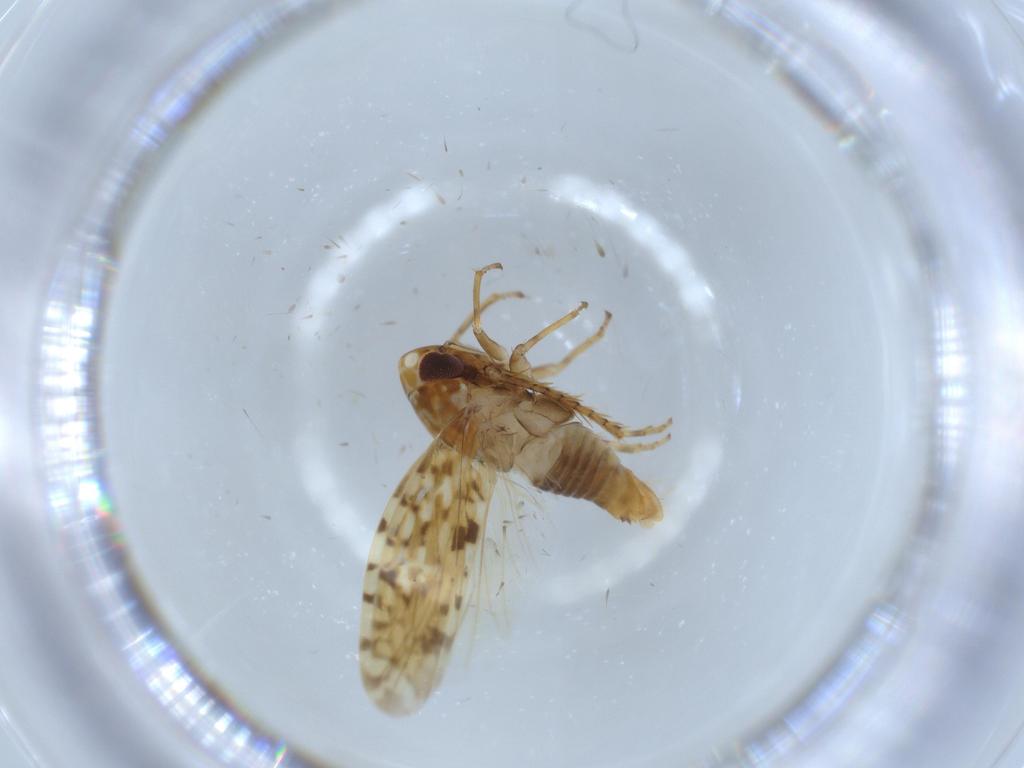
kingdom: Animalia
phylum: Arthropoda
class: Insecta
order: Hemiptera
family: Cicadellidae
